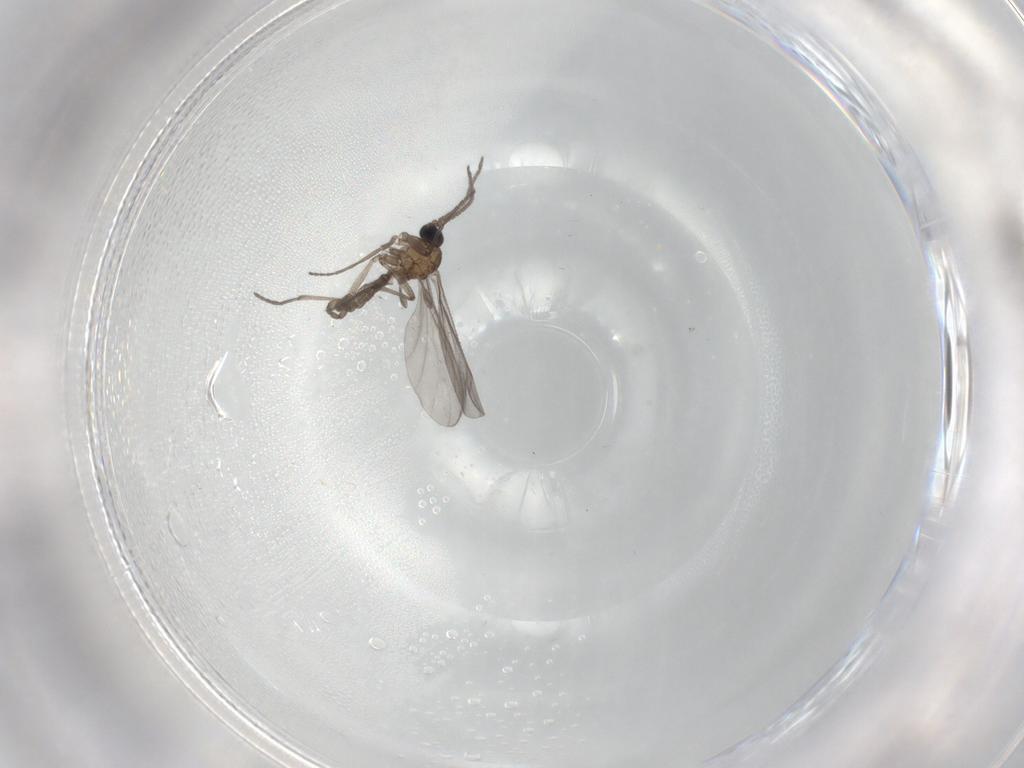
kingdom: Animalia
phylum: Arthropoda
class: Insecta
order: Diptera
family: Sciaridae
